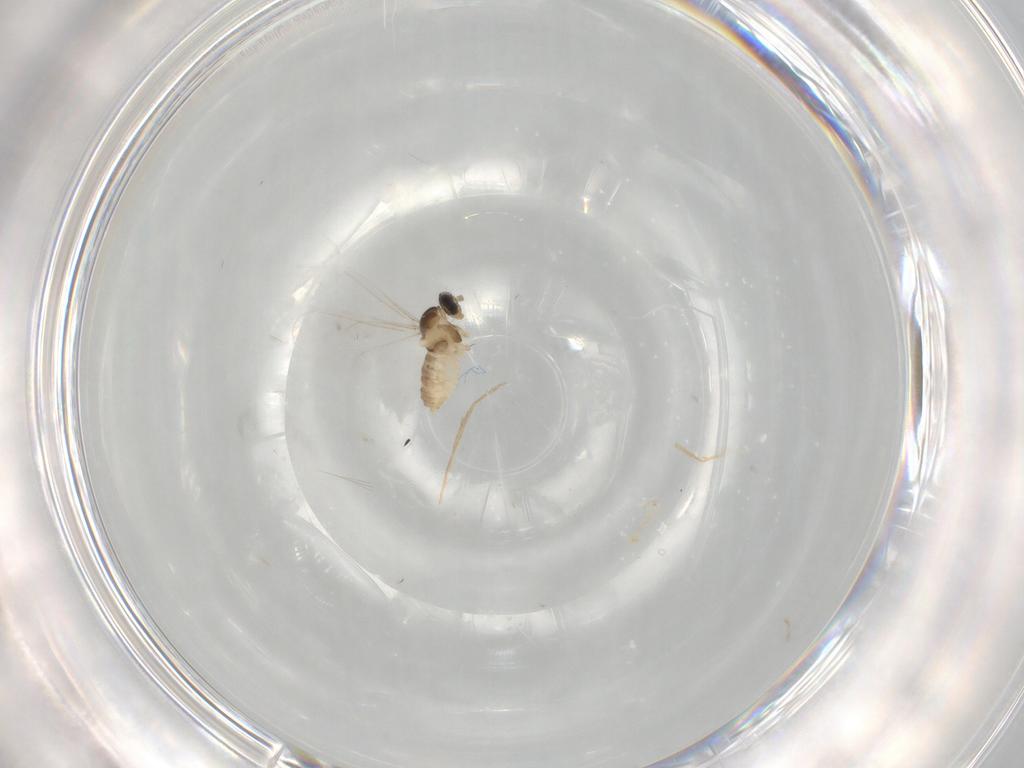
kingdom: Animalia
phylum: Arthropoda
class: Insecta
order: Diptera
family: Cecidomyiidae
